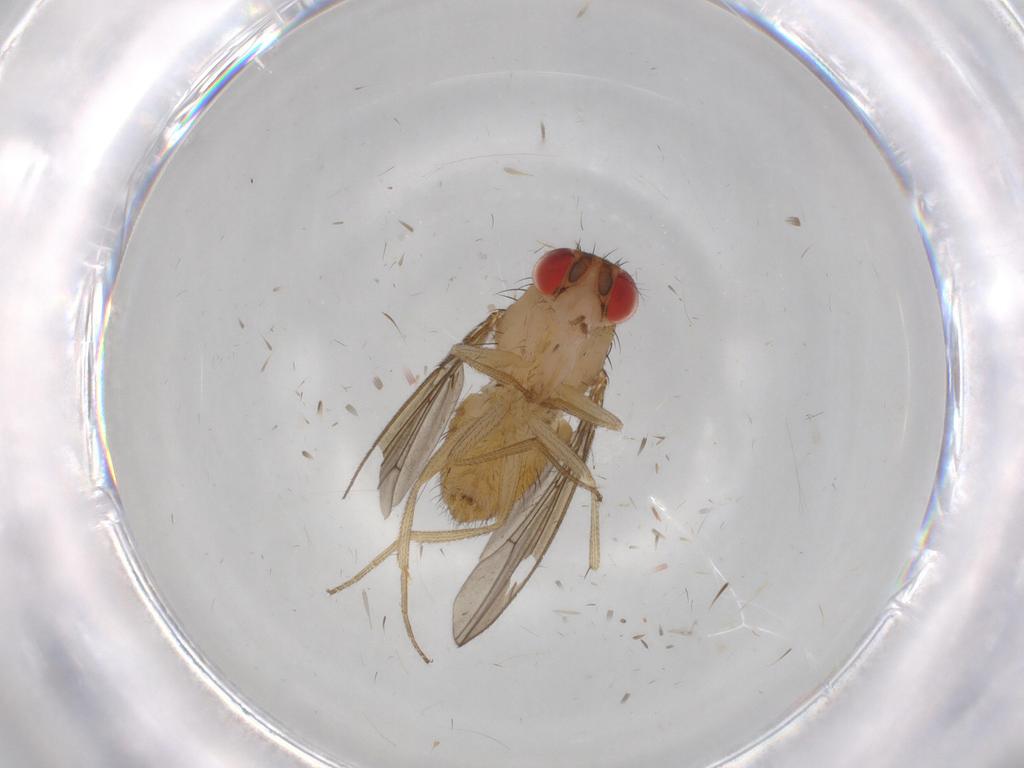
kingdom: Animalia
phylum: Arthropoda
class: Insecta
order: Diptera
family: Drosophilidae
